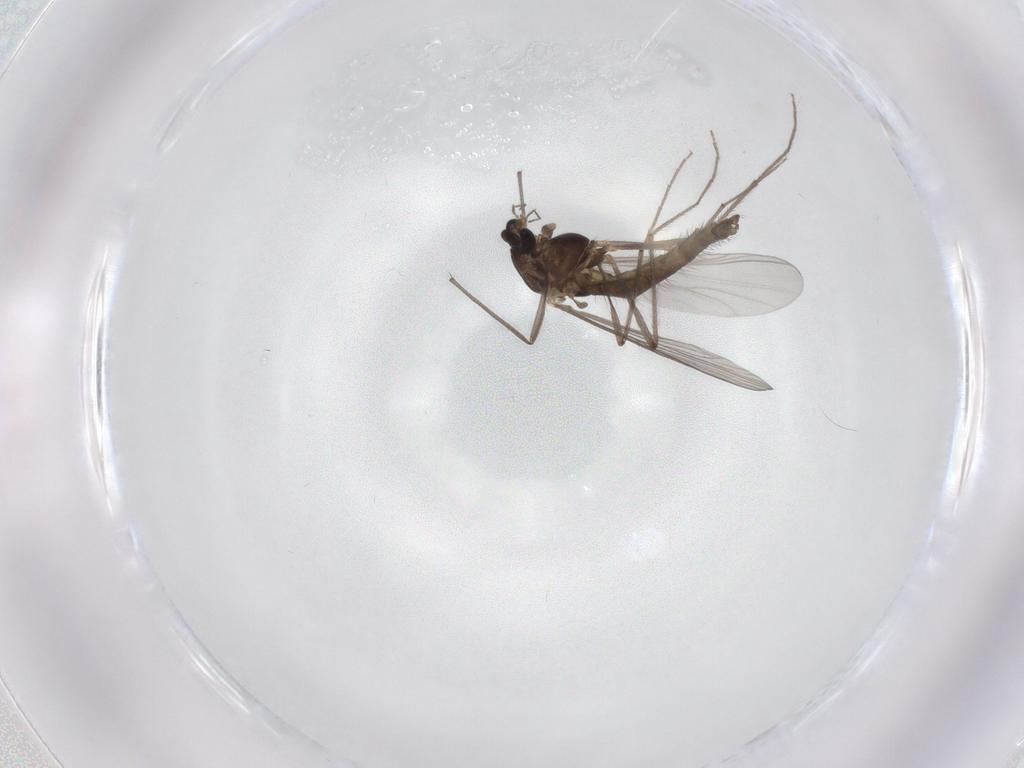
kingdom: Animalia
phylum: Arthropoda
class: Insecta
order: Diptera
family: Chironomidae
